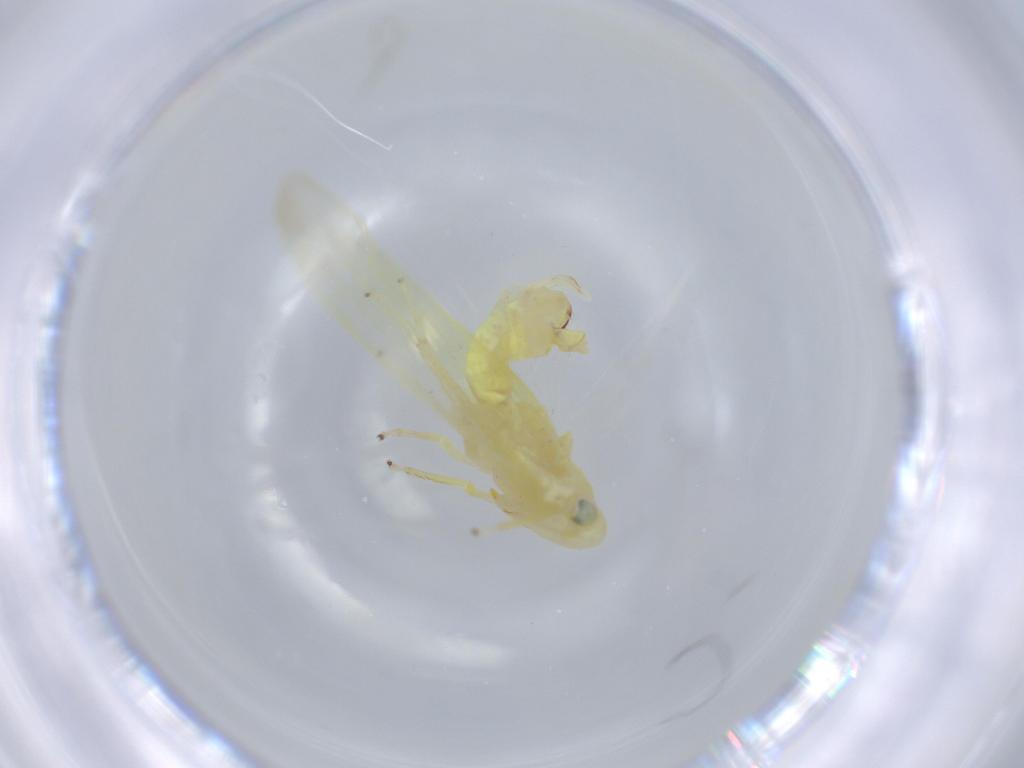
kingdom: Animalia
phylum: Arthropoda
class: Insecta
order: Hemiptera
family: Cicadellidae
